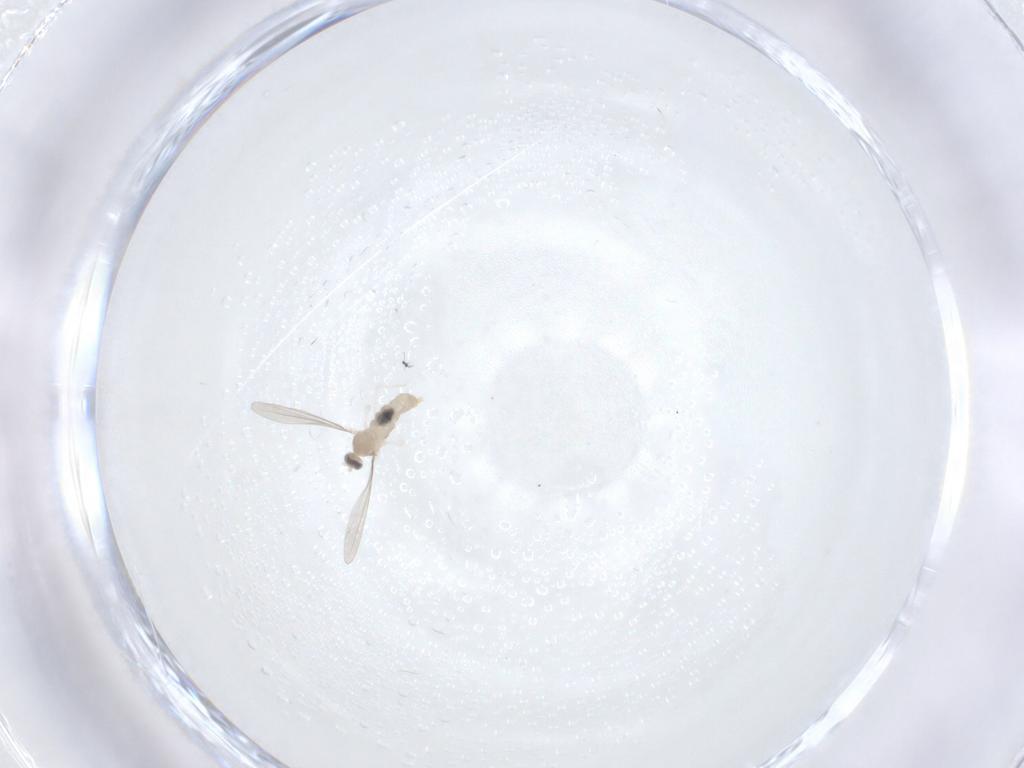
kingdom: Animalia
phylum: Arthropoda
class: Insecta
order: Diptera
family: Cecidomyiidae
